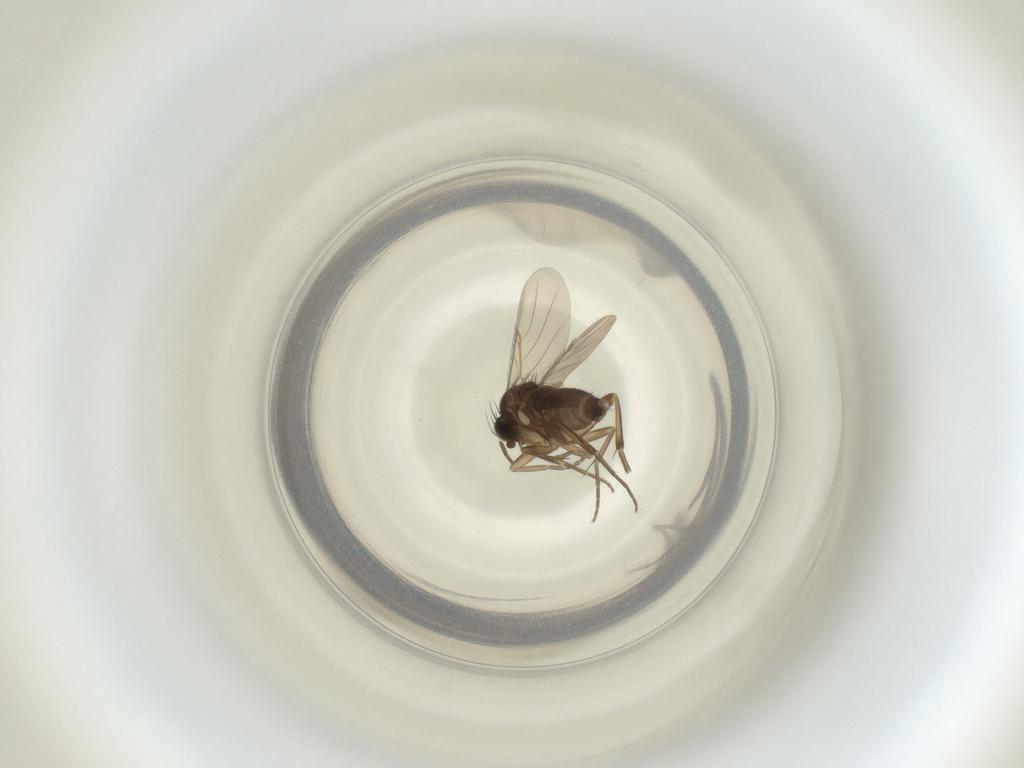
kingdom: Animalia
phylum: Arthropoda
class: Insecta
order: Diptera
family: Phoridae
